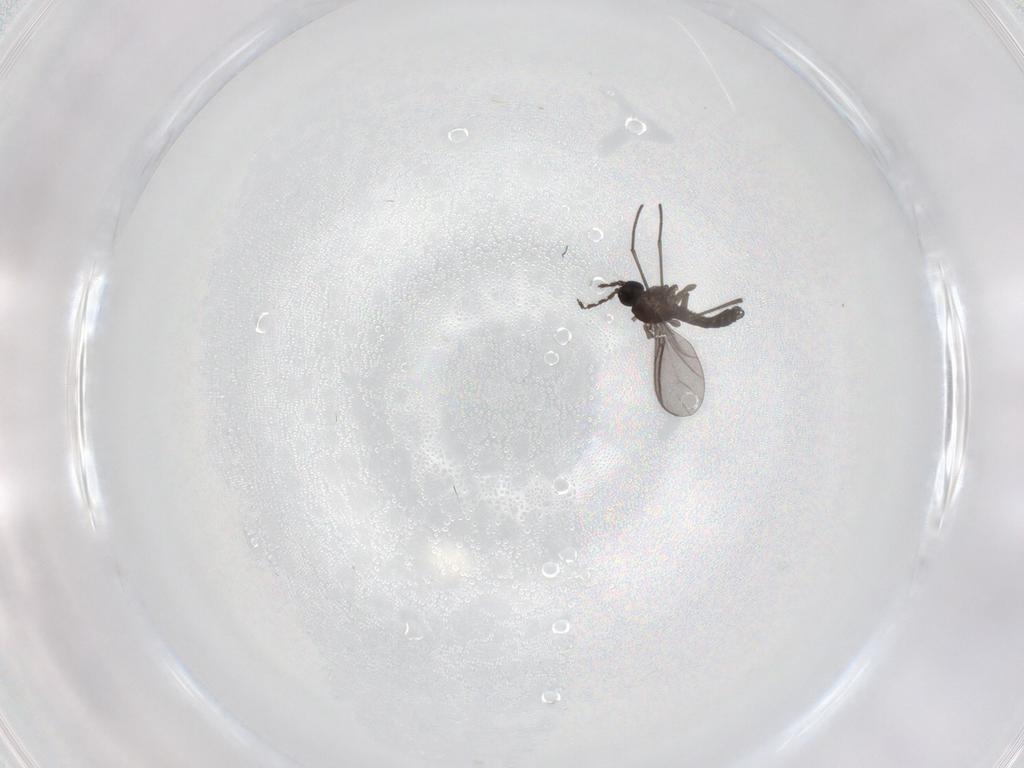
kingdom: Animalia
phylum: Arthropoda
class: Insecta
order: Diptera
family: Sciaridae
